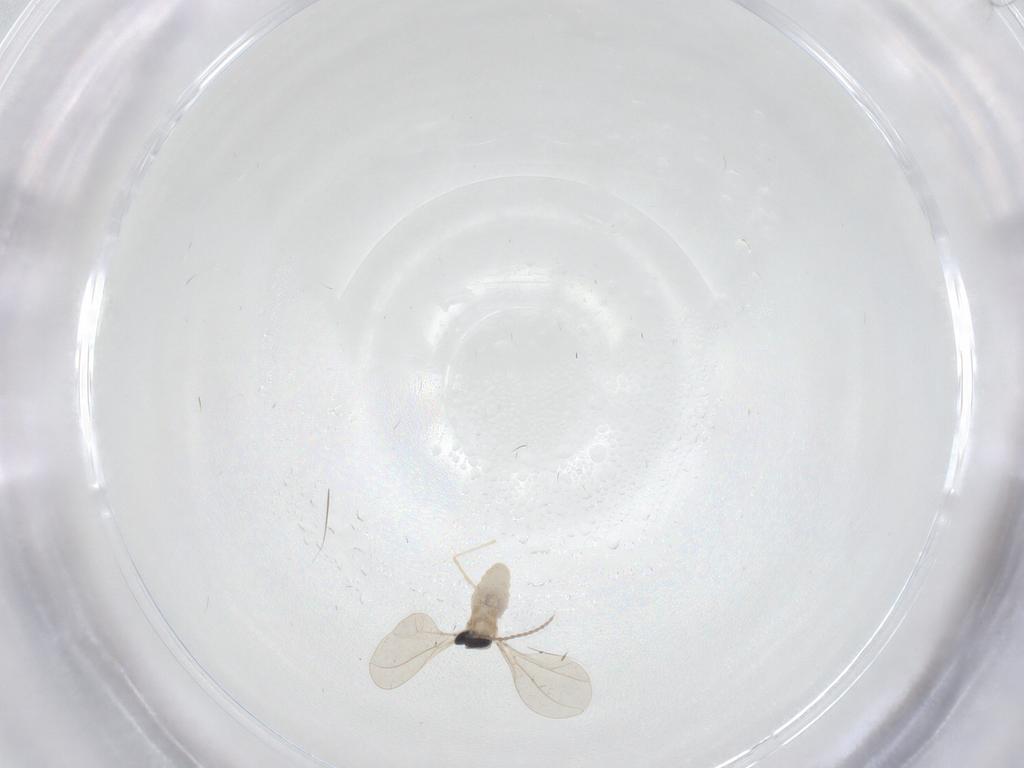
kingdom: Animalia
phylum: Arthropoda
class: Insecta
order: Diptera
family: Cecidomyiidae
